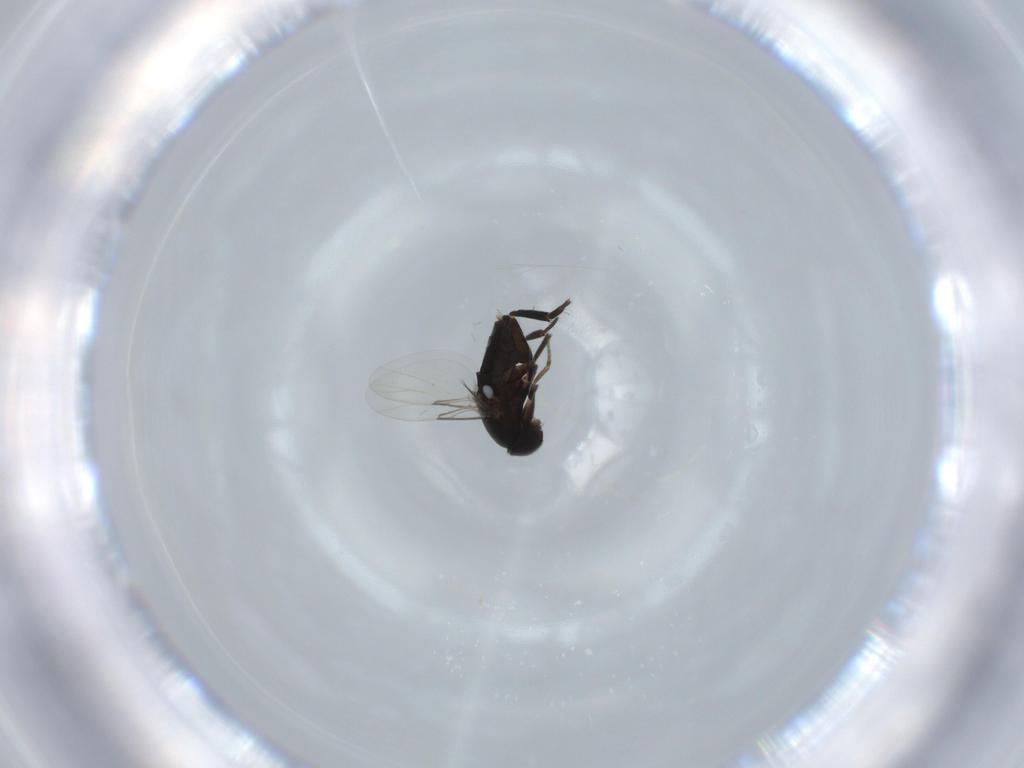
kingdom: Animalia
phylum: Arthropoda
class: Insecta
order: Diptera
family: Phoridae
